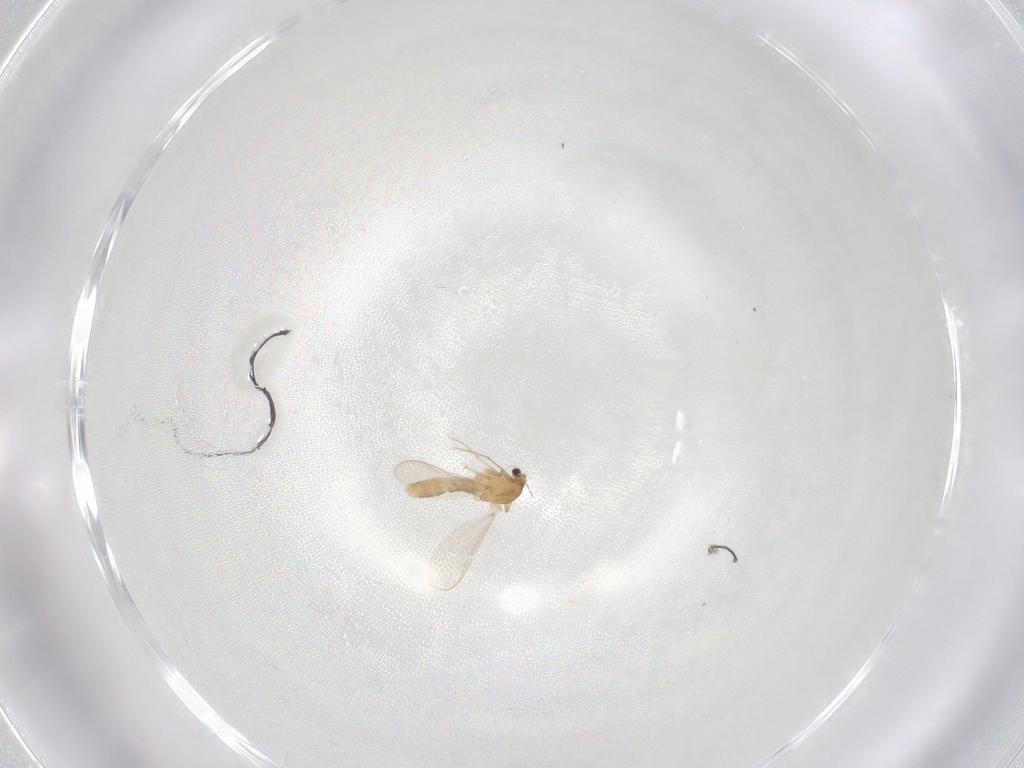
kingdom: Animalia
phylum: Arthropoda
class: Insecta
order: Diptera
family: Chironomidae
